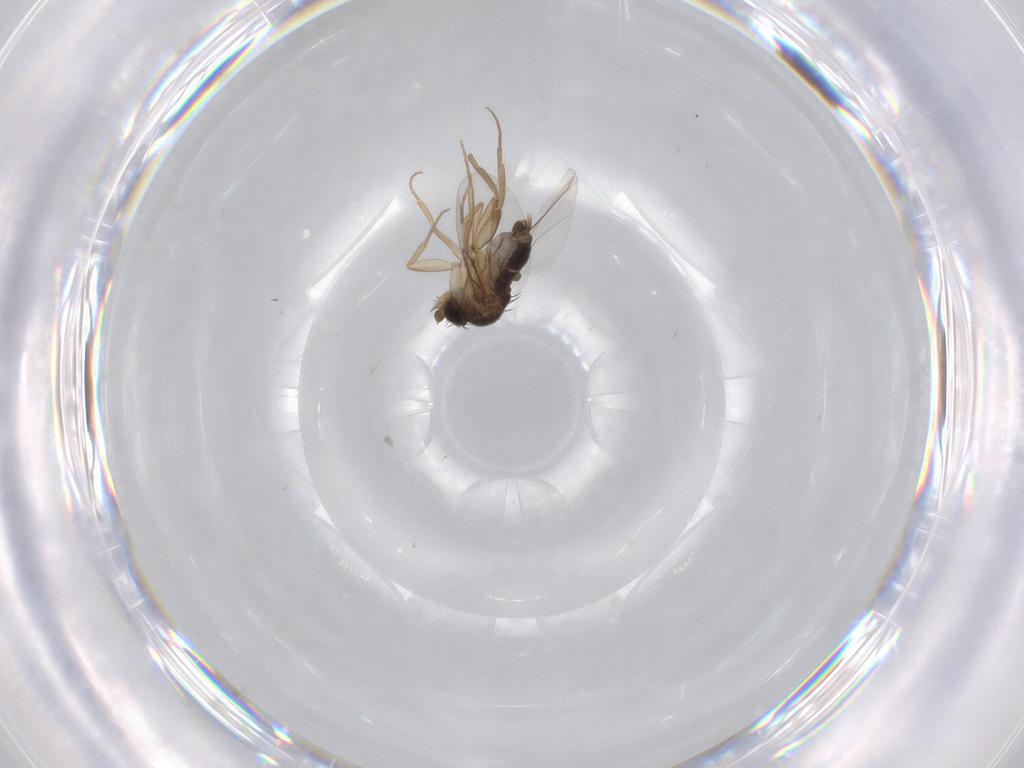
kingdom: Animalia
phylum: Arthropoda
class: Insecta
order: Diptera
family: Phoridae
